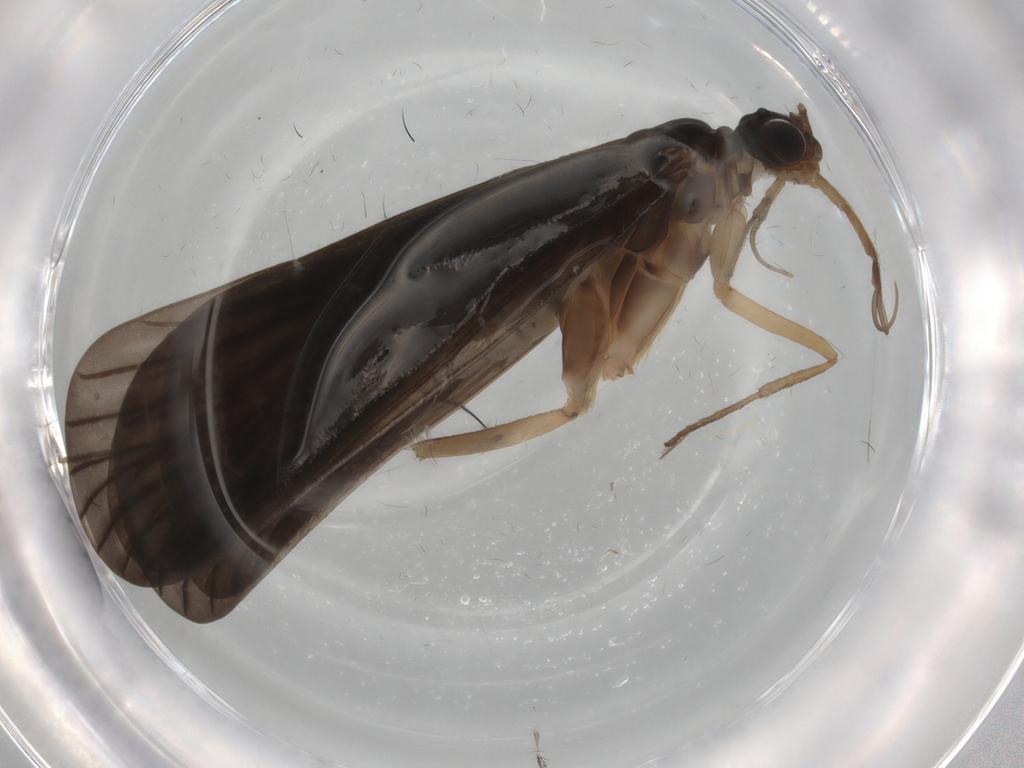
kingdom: Animalia
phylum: Arthropoda
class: Insecta
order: Trichoptera
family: Philopotamidae
